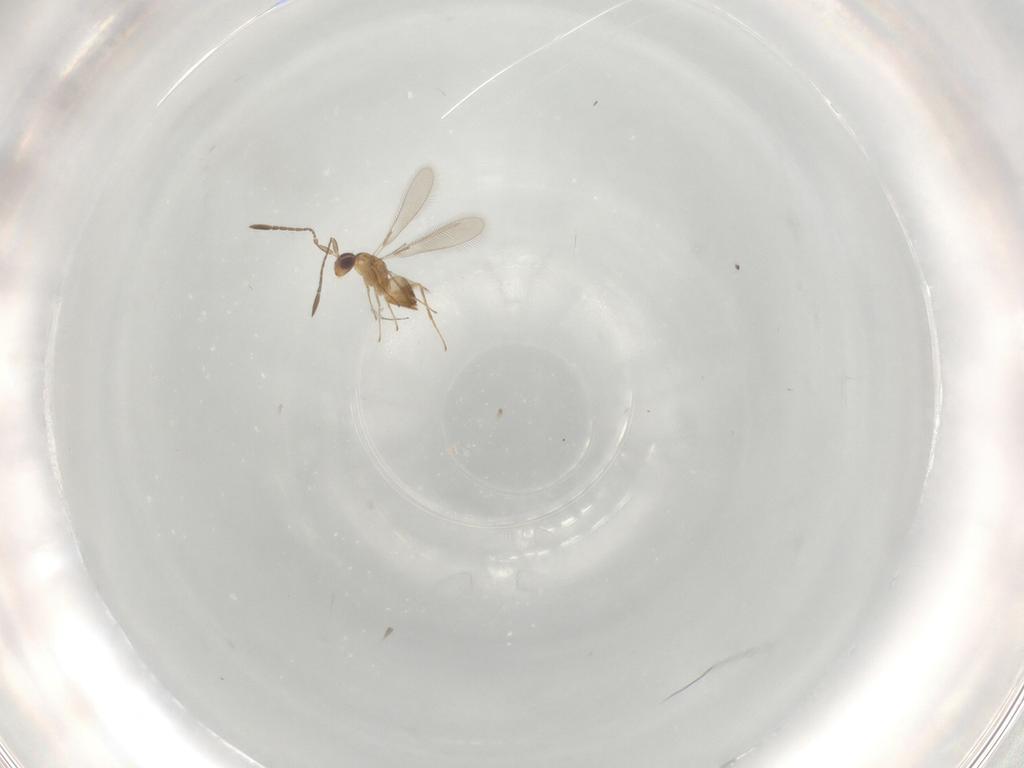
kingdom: Animalia
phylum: Arthropoda
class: Insecta
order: Hymenoptera
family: Mymaridae
